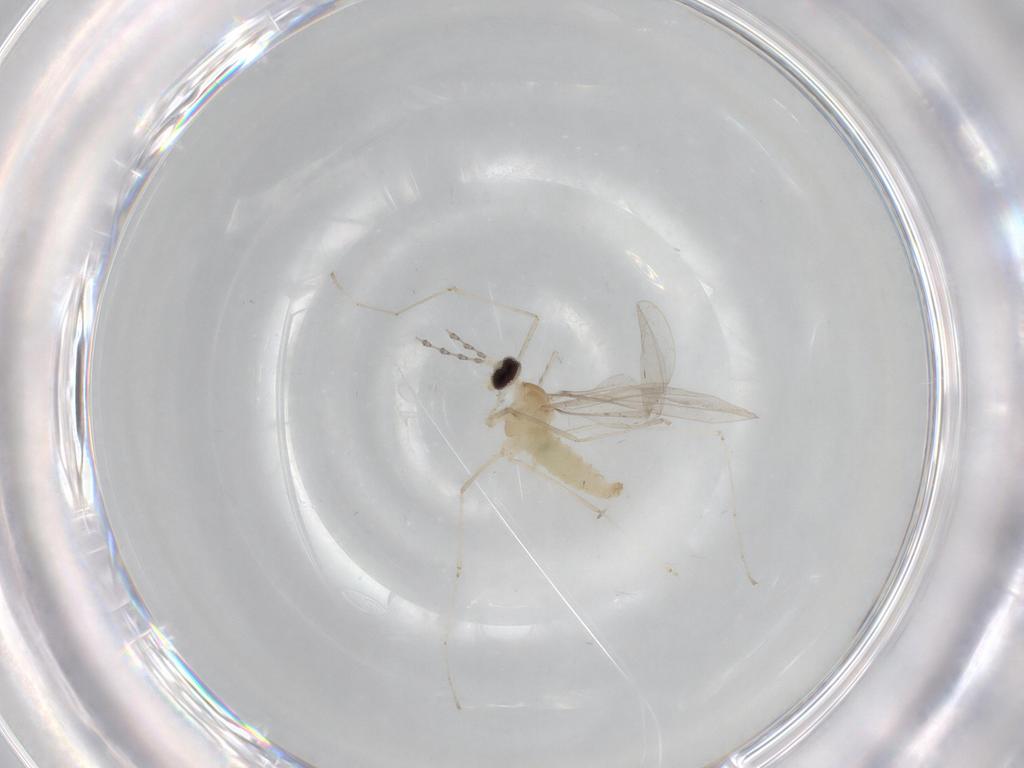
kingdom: Animalia
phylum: Arthropoda
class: Insecta
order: Diptera
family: Cecidomyiidae
